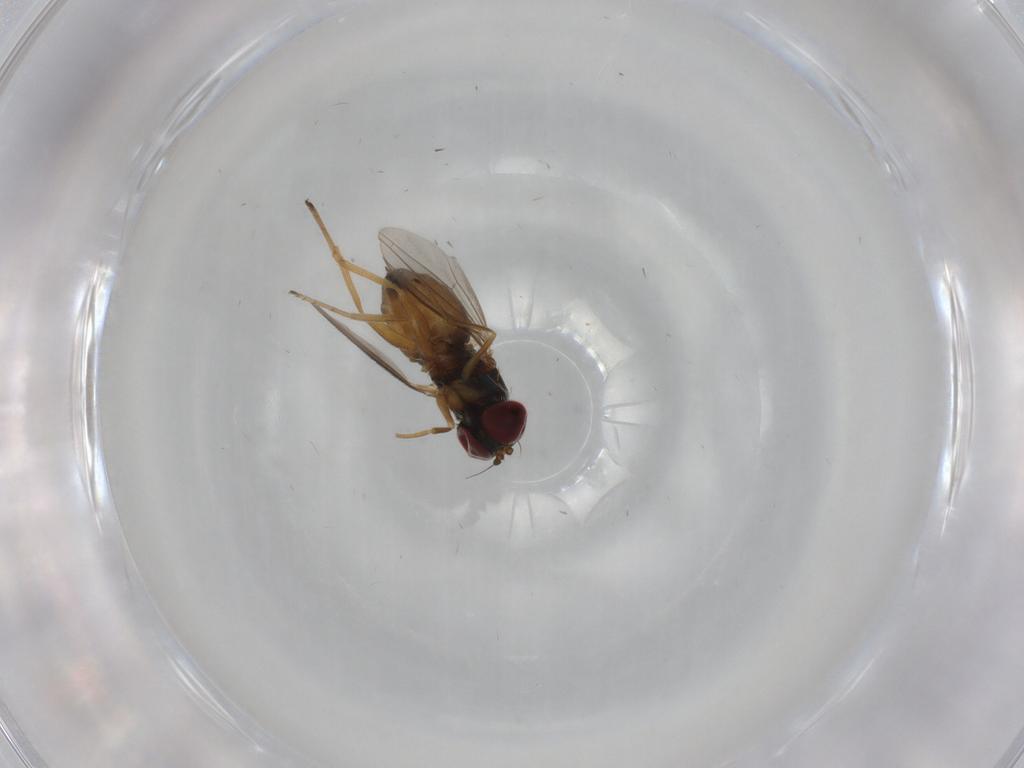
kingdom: Animalia
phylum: Arthropoda
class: Insecta
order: Diptera
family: Dolichopodidae
